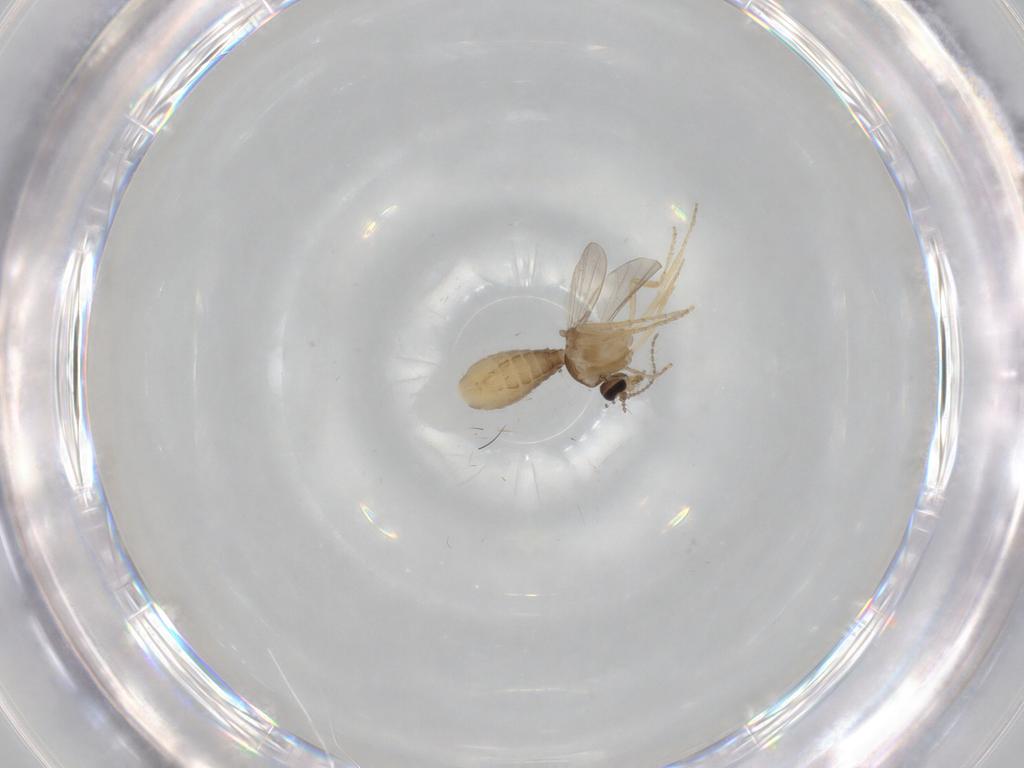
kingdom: Animalia
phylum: Arthropoda
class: Insecta
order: Diptera
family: Ceratopogonidae
